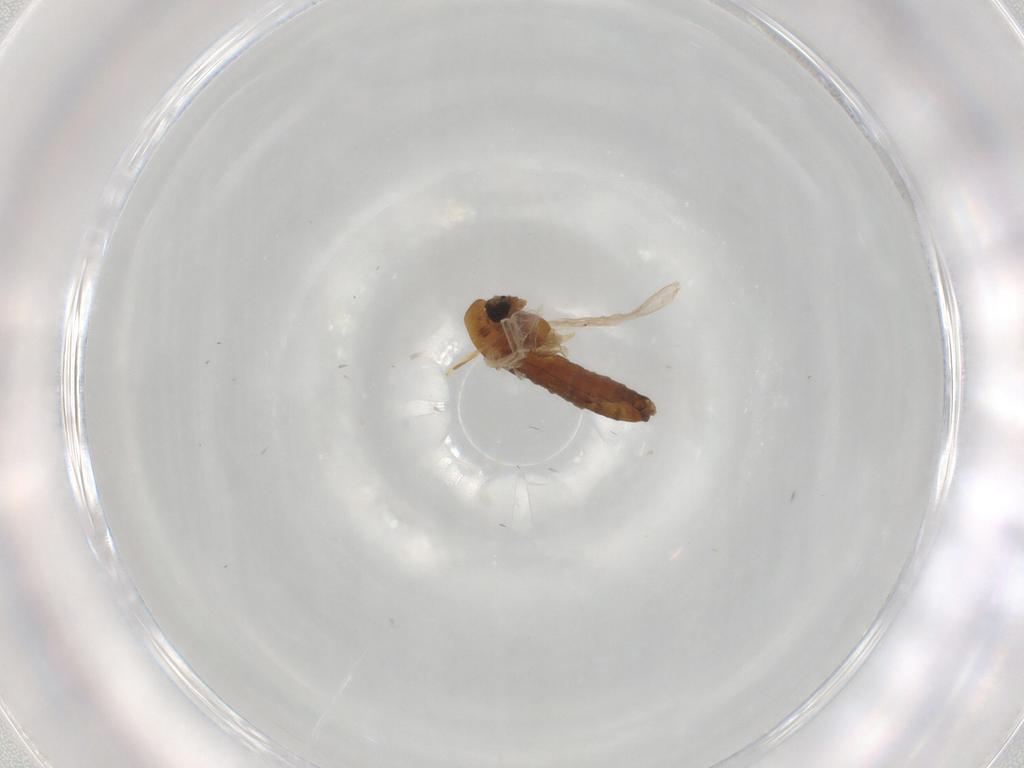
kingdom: Animalia
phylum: Arthropoda
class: Insecta
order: Diptera
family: Chironomidae
